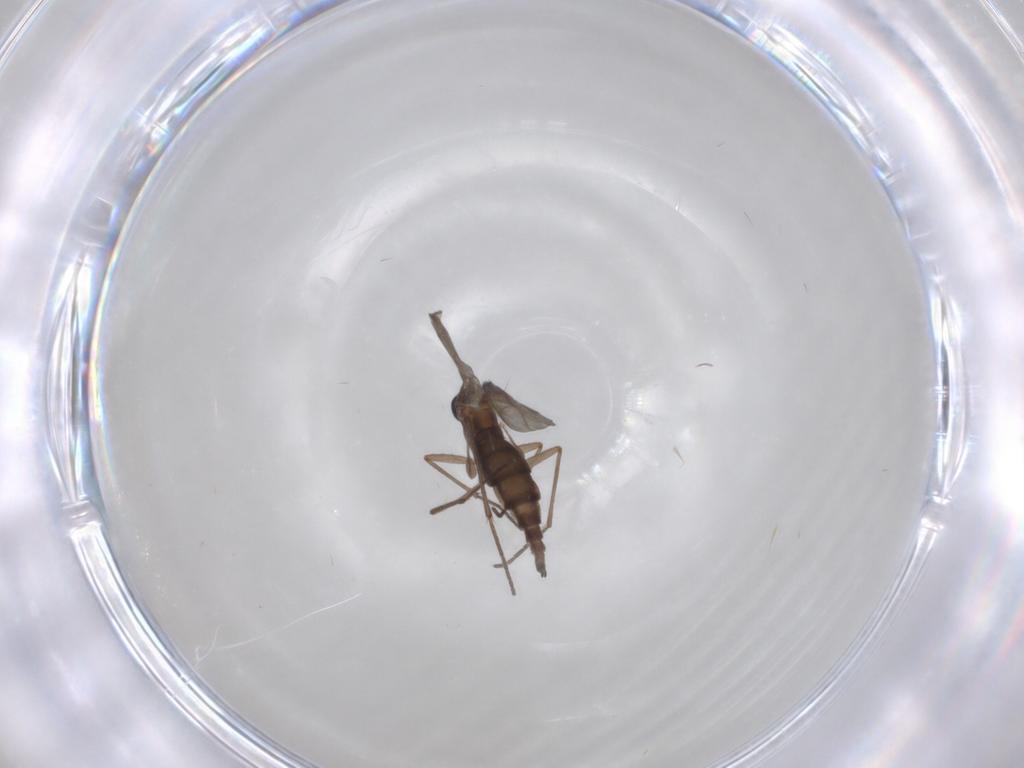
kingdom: Animalia
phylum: Arthropoda
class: Insecta
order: Diptera
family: Sciaridae
